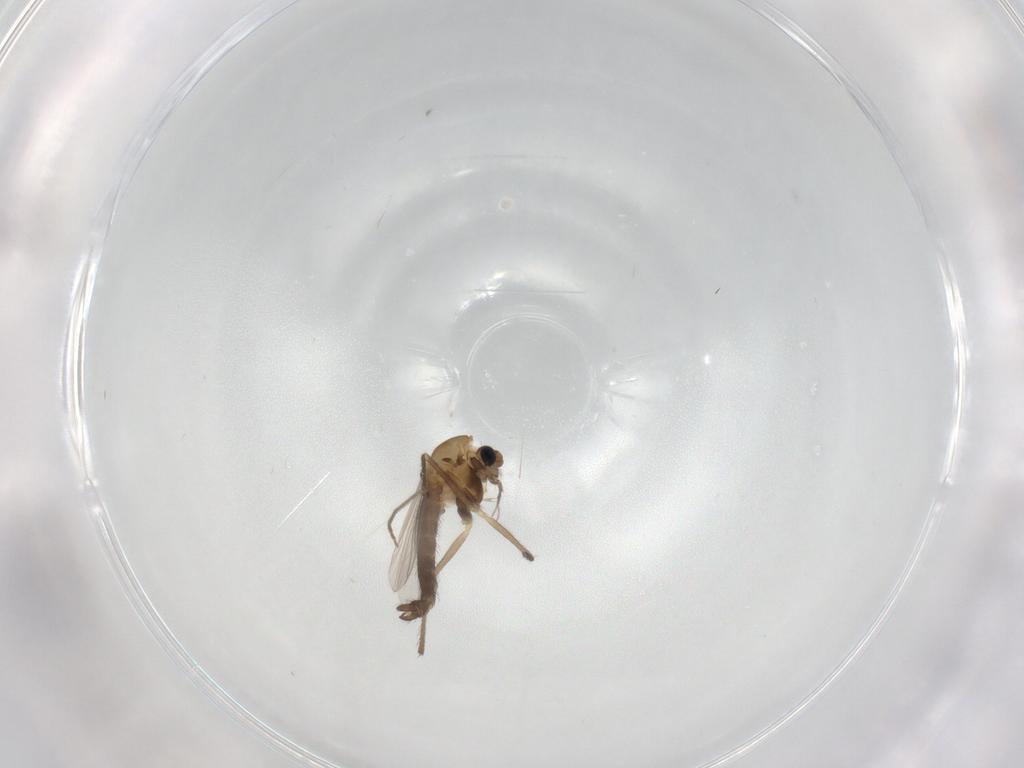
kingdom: Animalia
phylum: Arthropoda
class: Insecta
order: Diptera
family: Chironomidae
